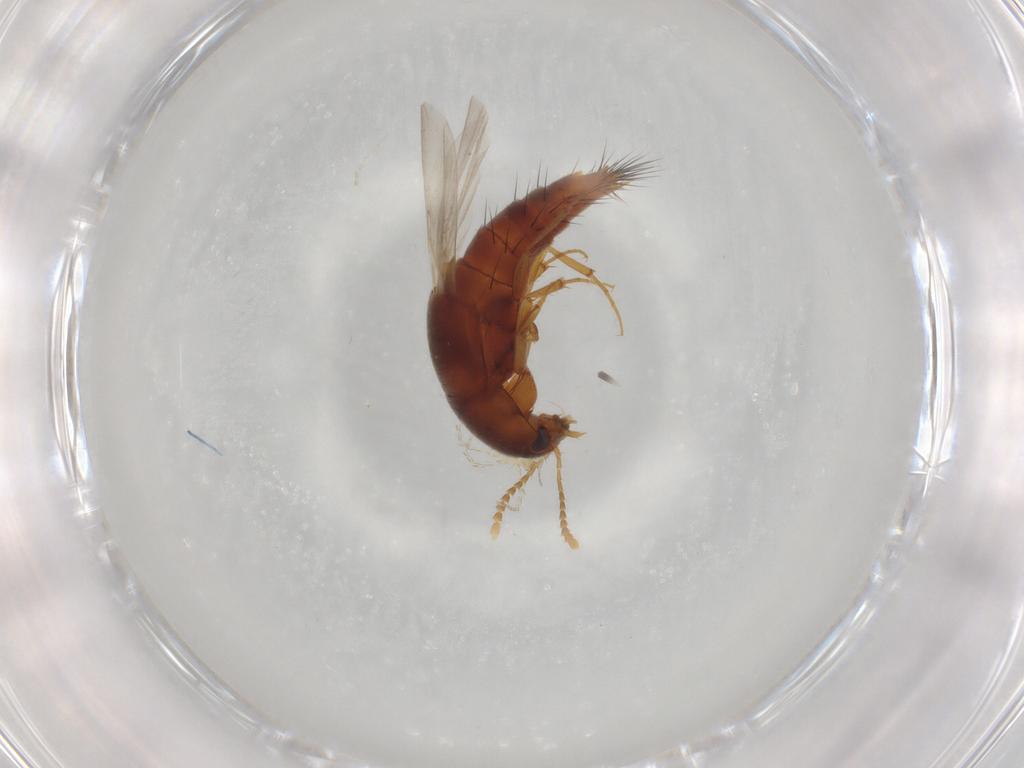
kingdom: Animalia
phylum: Arthropoda
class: Insecta
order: Coleoptera
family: Staphylinidae
